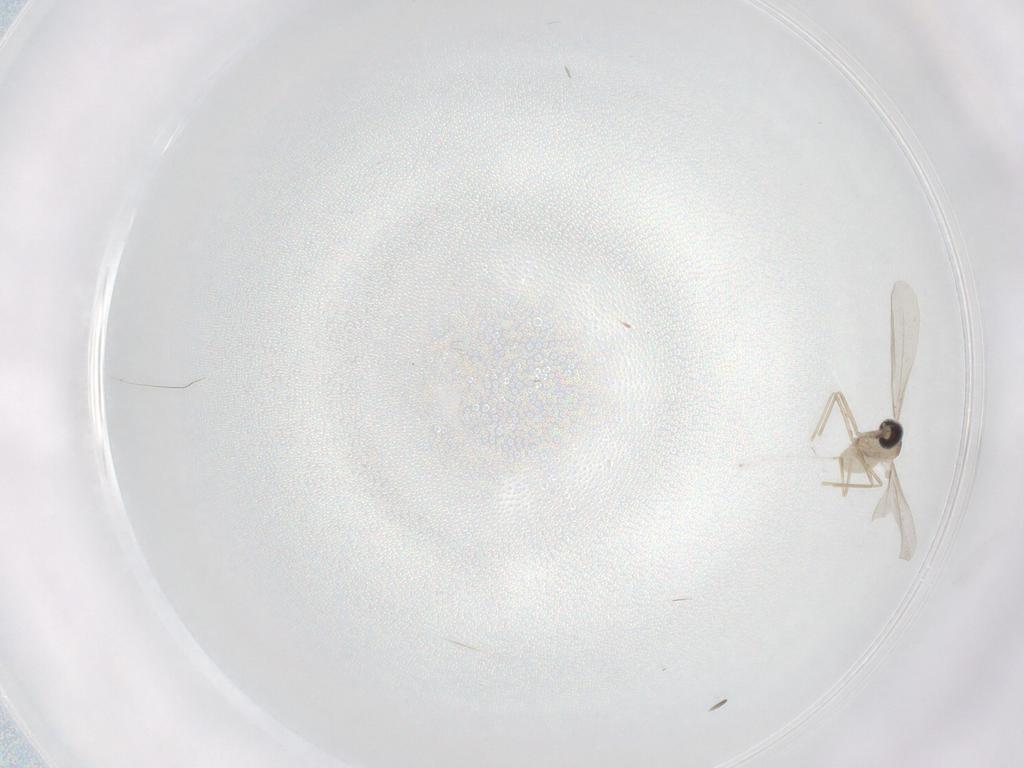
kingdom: Animalia
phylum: Arthropoda
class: Insecta
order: Diptera
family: Cecidomyiidae
